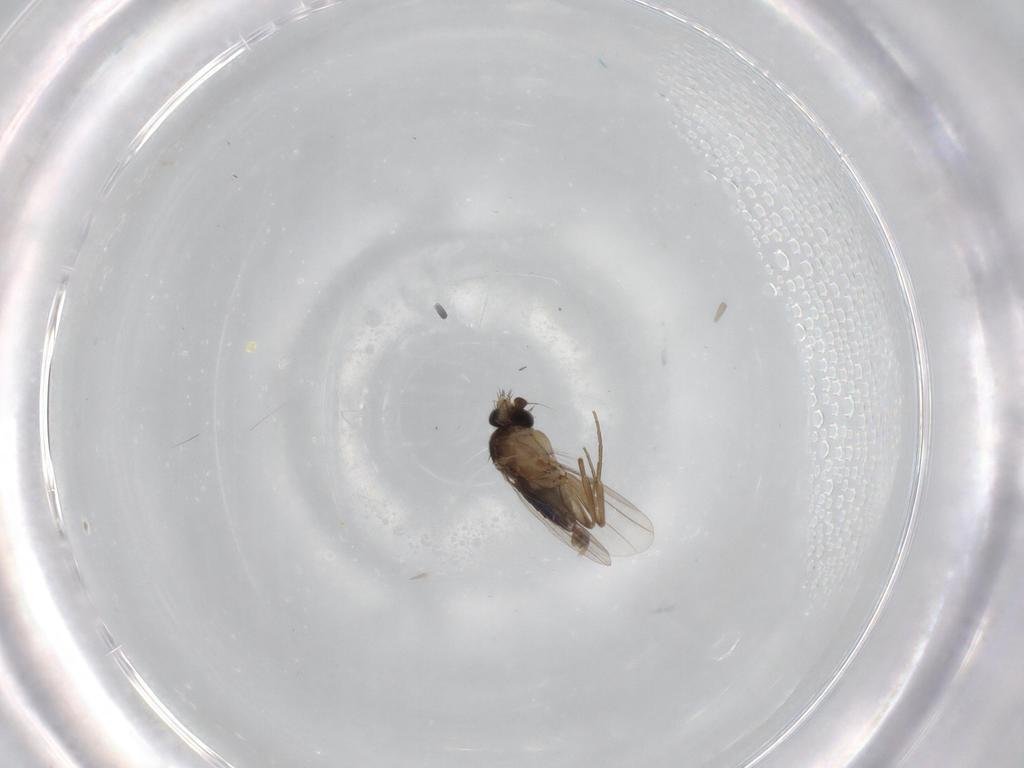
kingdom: Animalia
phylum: Arthropoda
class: Insecta
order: Diptera
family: Phoridae
